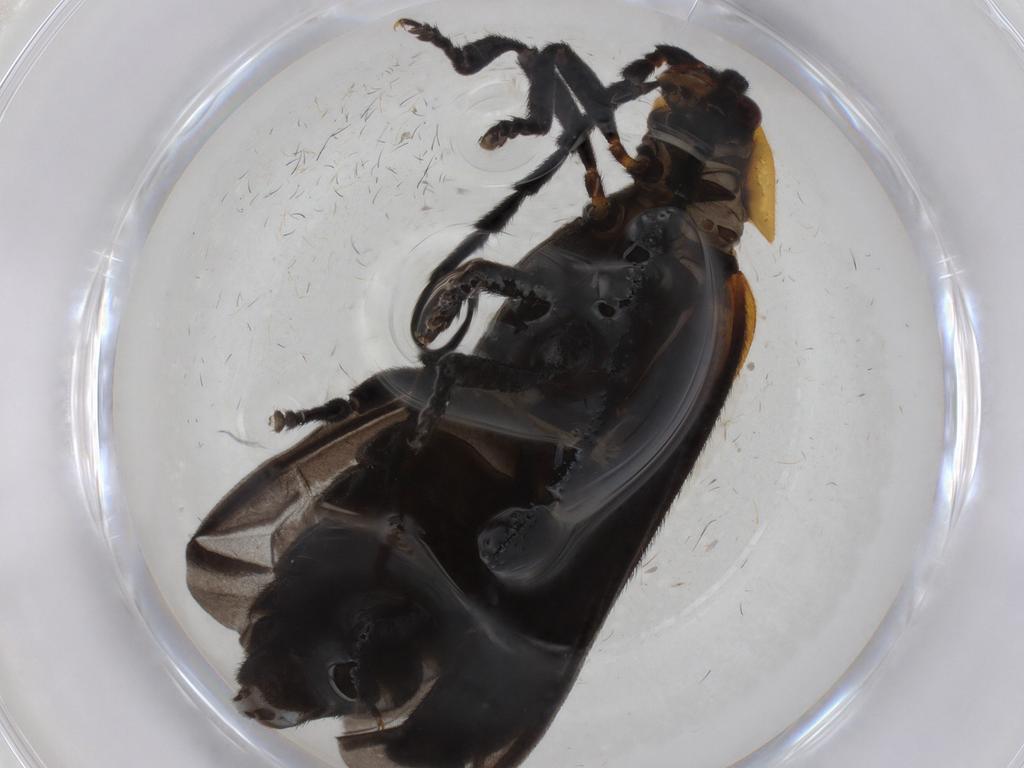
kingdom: Animalia
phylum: Arthropoda
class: Insecta
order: Coleoptera
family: Lycidae
